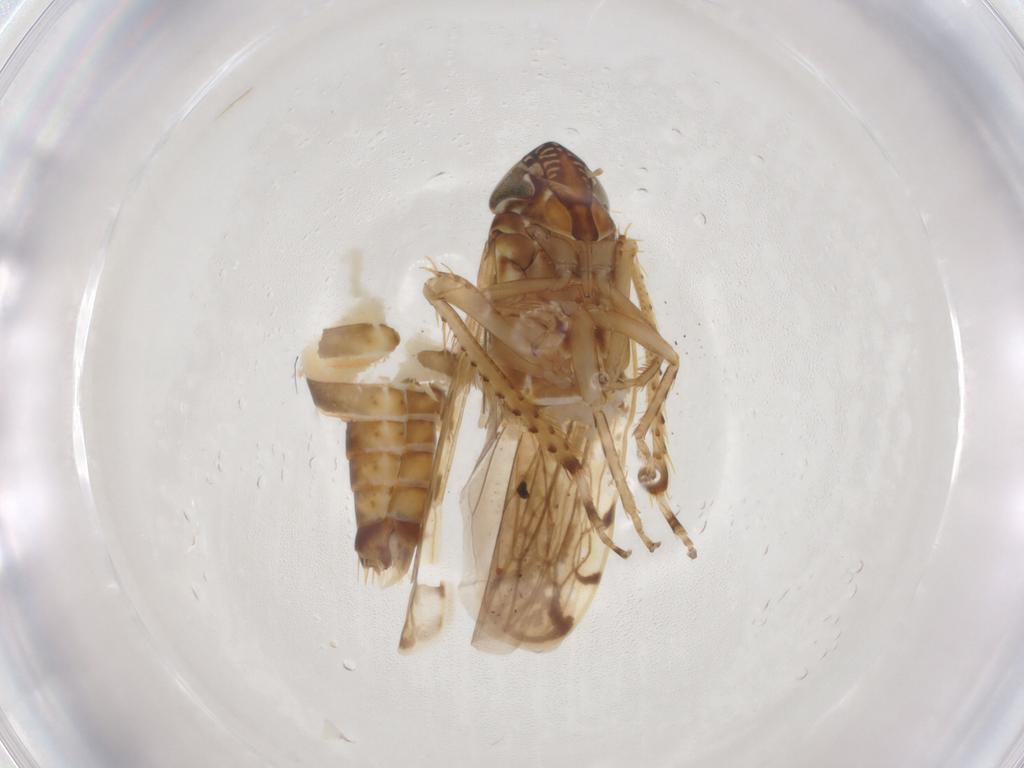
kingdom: Animalia
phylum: Arthropoda
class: Insecta
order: Hemiptera
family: Cicadellidae
